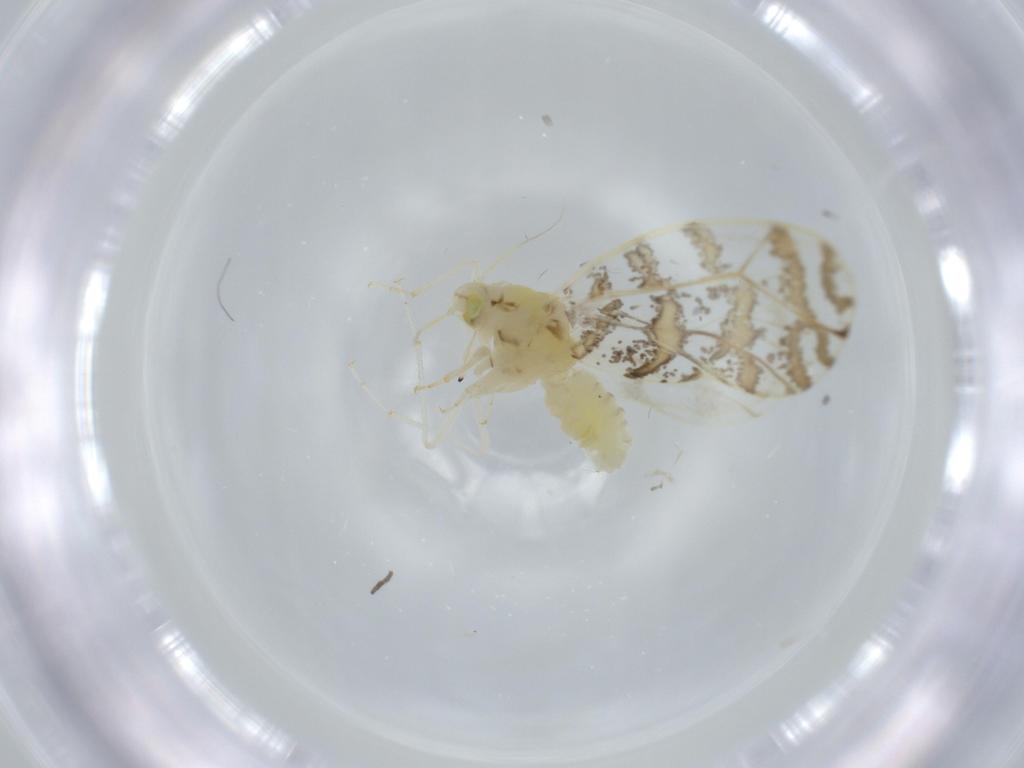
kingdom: Animalia
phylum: Arthropoda
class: Insecta
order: Hemiptera
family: Aleyrodidae
